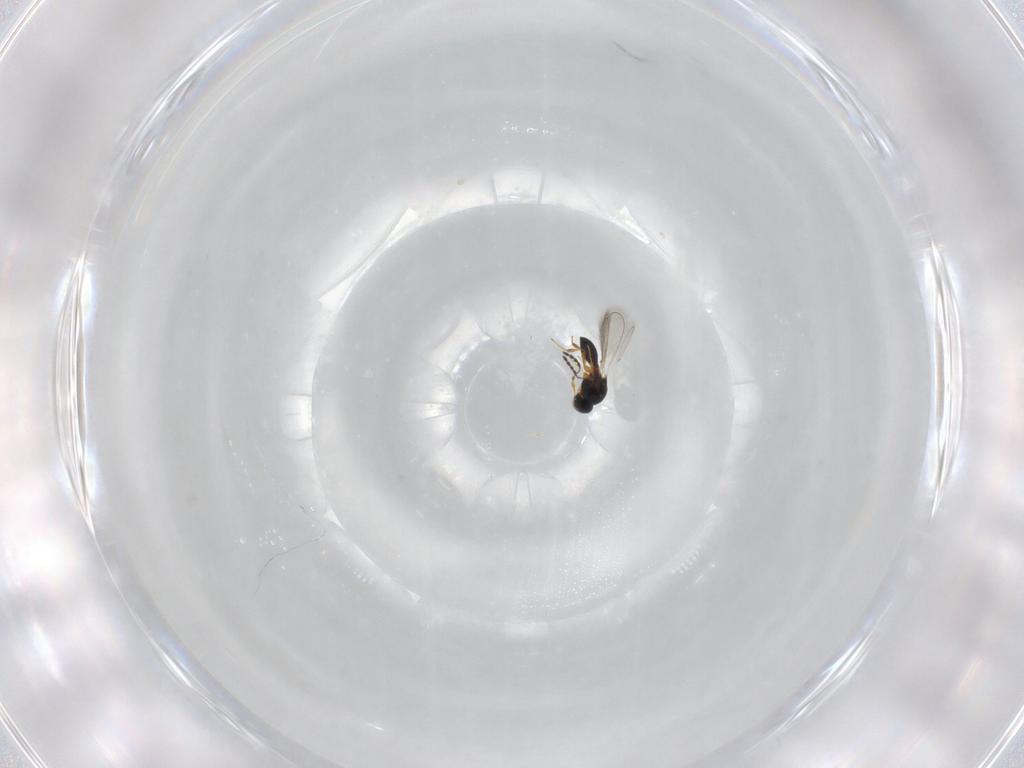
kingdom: Animalia
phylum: Arthropoda
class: Insecta
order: Hymenoptera
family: Platygastridae
